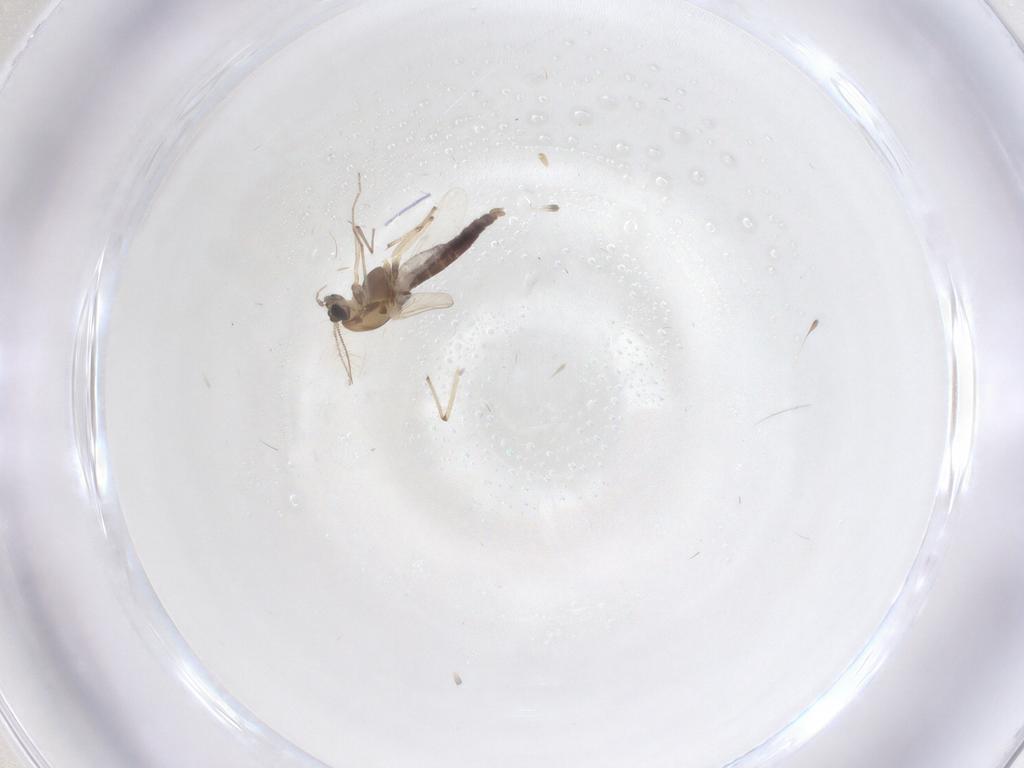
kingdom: Animalia
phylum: Arthropoda
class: Insecta
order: Diptera
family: Chironomidae
